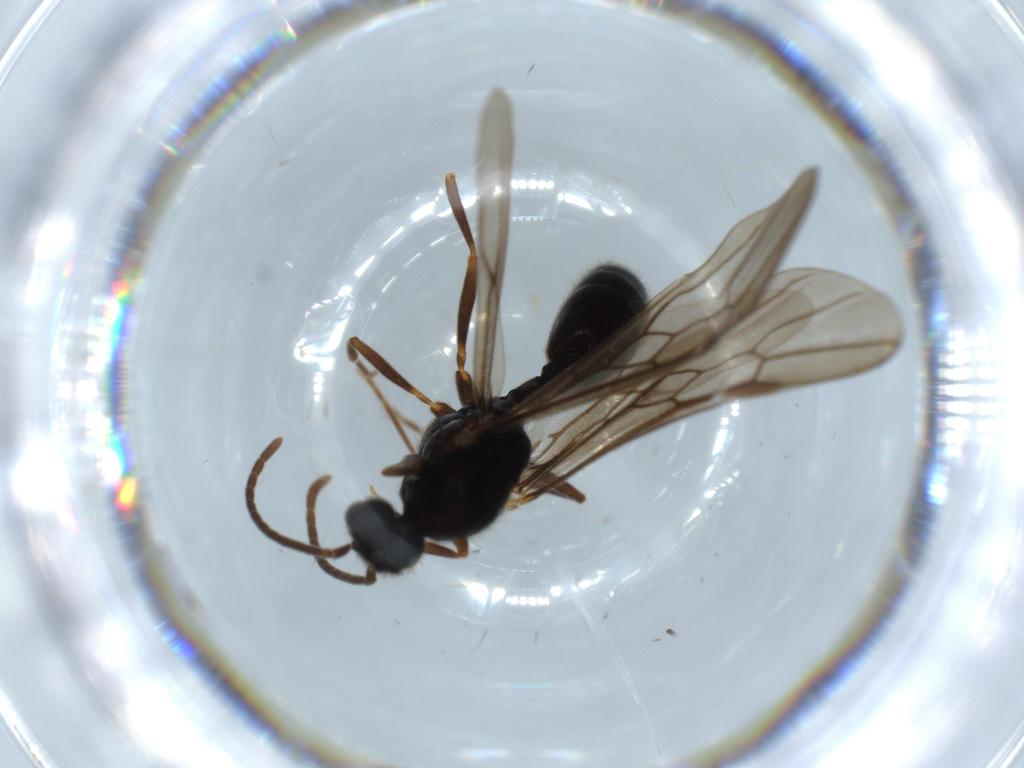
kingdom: Animalia
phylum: Arthropoda
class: Insecta
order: Hymenoptera
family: Formicidae
